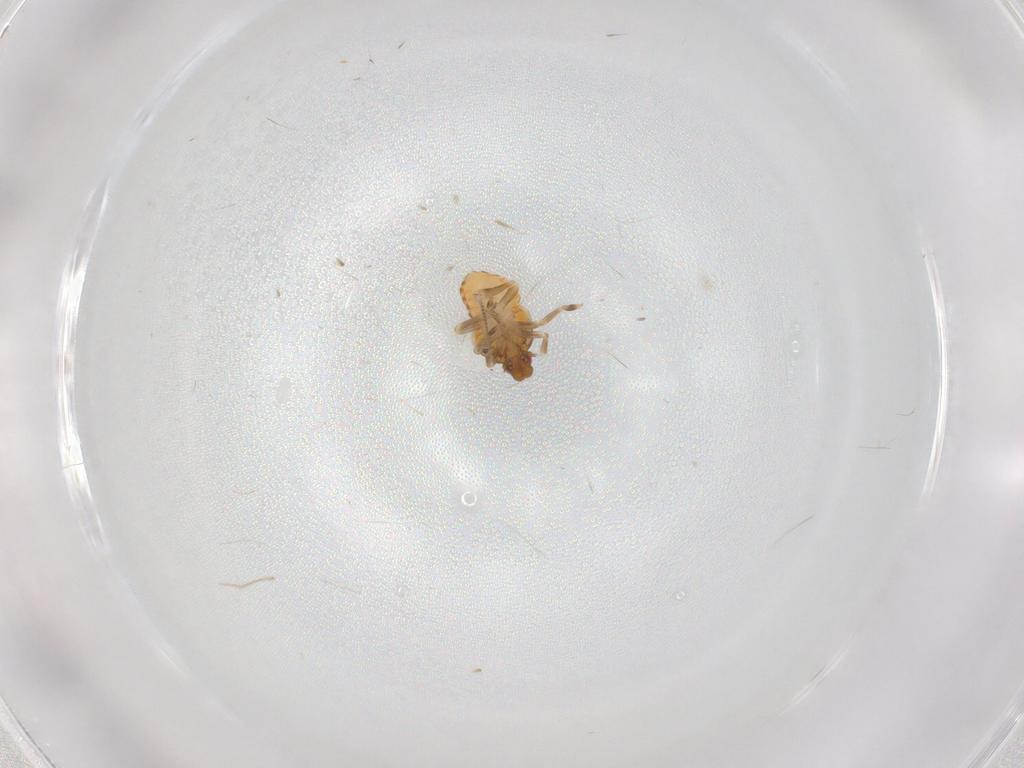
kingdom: Animalia
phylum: Arthropoda
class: Insecta
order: Hemiptera
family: Flatidae
